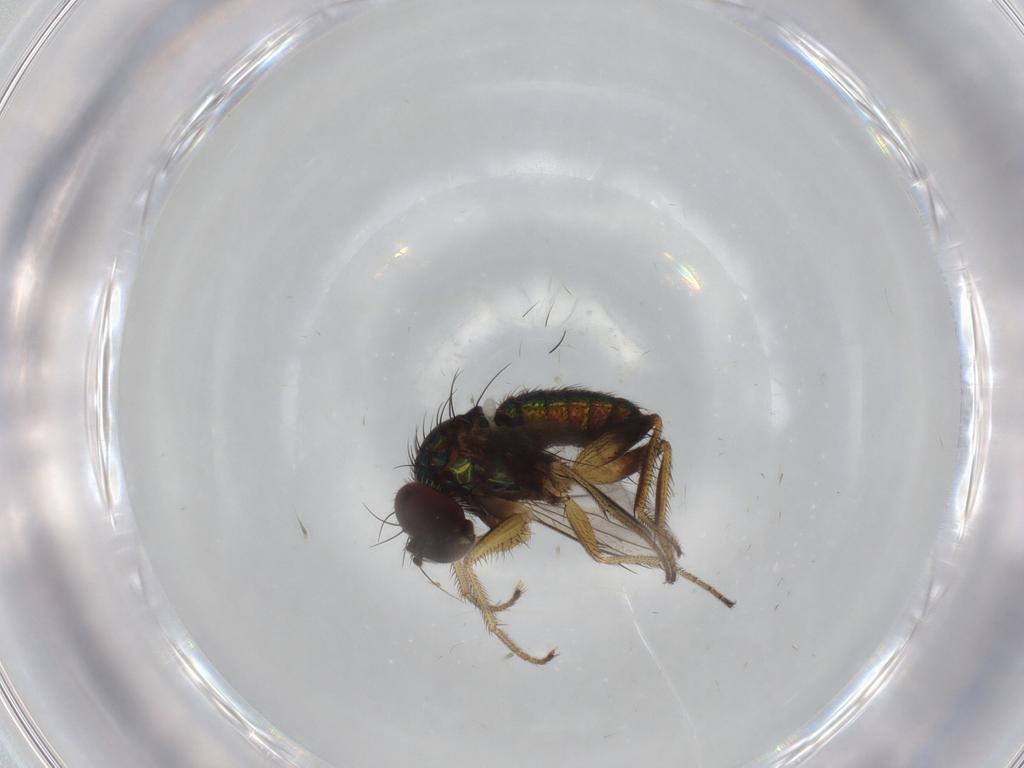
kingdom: Animalia
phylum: Arthropoda
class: Insecta
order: Diptera
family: Dolichopodidae
